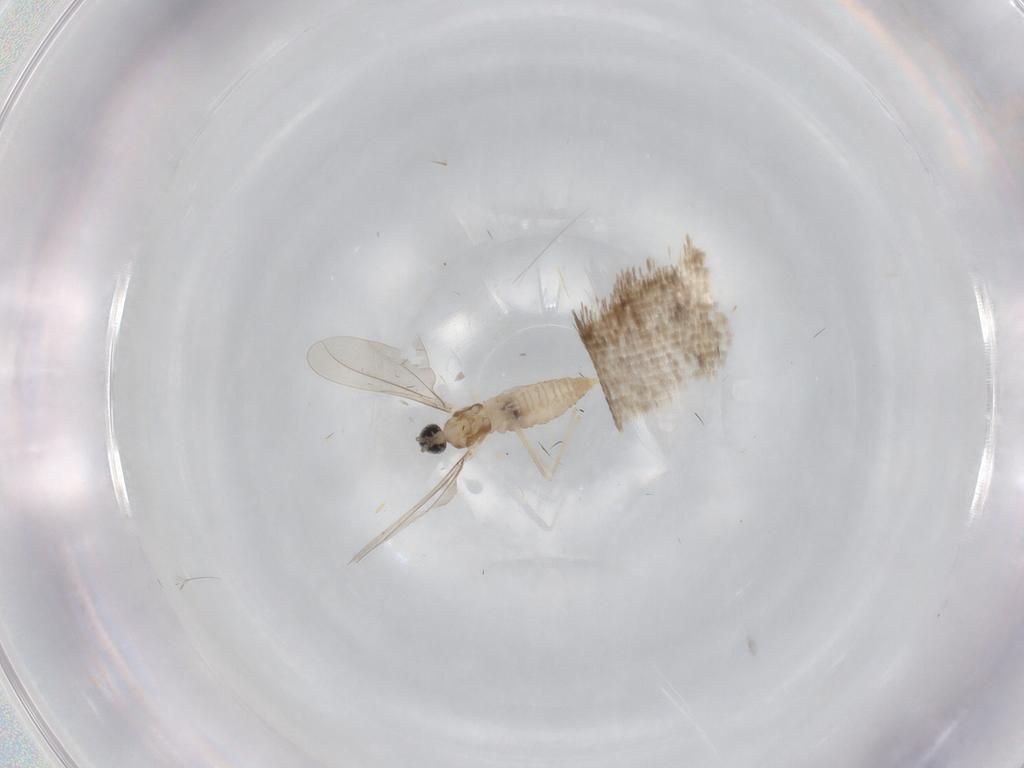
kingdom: Animalia
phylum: Arthropoda
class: Insecta
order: Diptera
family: Cecidomyiidae
